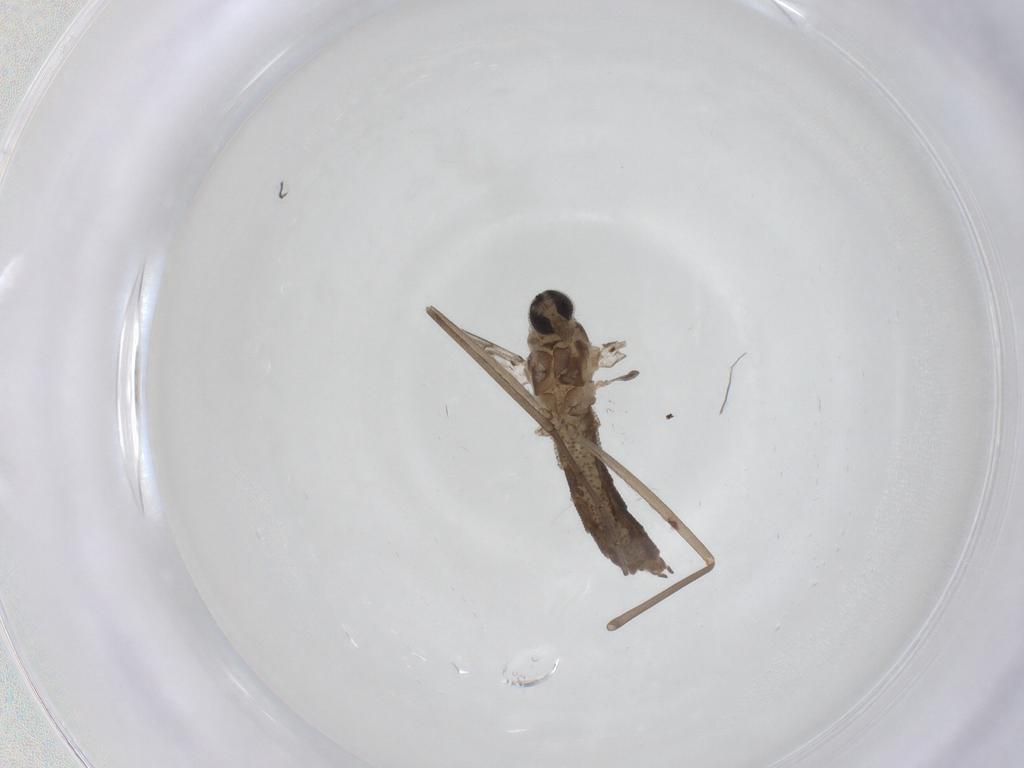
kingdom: Animalia
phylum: Arthropoda
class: Insecta
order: Diptera
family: Cecidomyiidae
